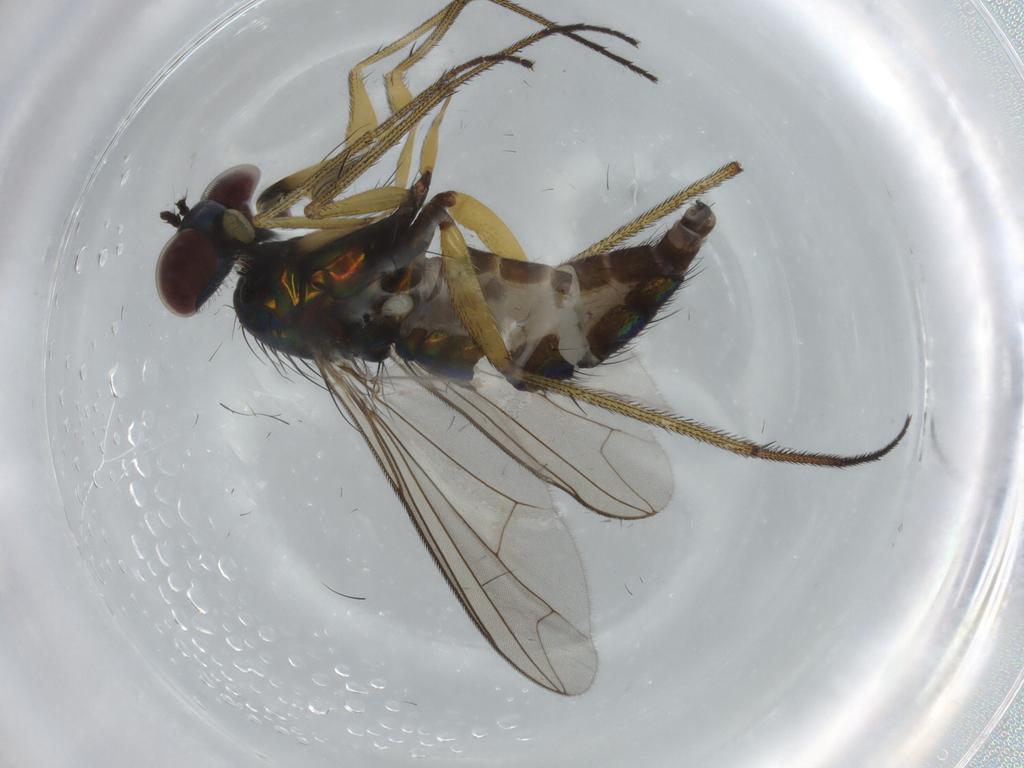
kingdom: Animalia
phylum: Arthropoda
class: Insecta
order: Diptera
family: Dolichopodidae
